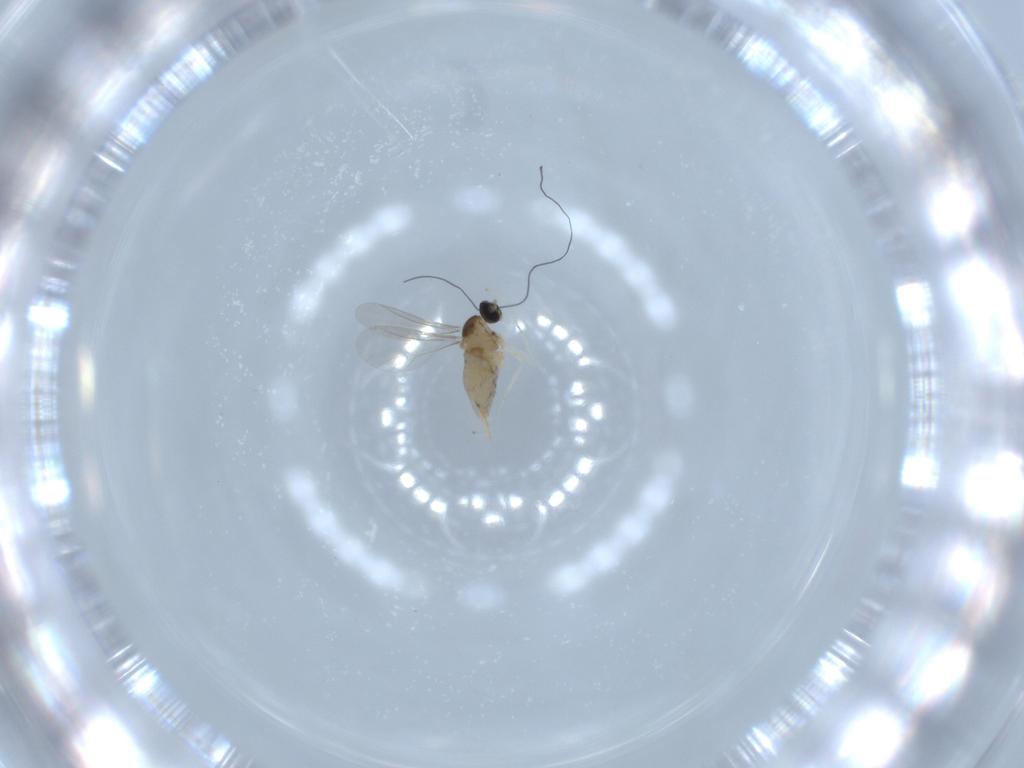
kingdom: Animalia
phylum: Arthropoda
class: Insecta
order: Diptera
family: Cecidomyiidae
